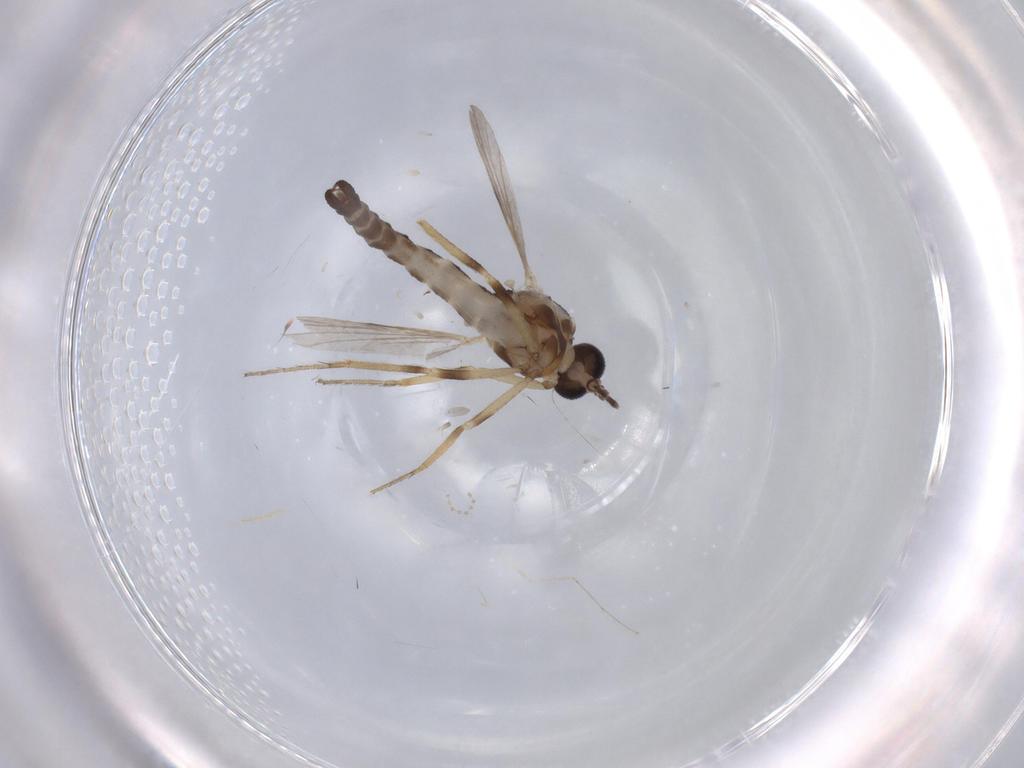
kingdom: Animalia
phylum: Arthropoda
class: Insecta
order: Diptera
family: Ceratopogonidae
